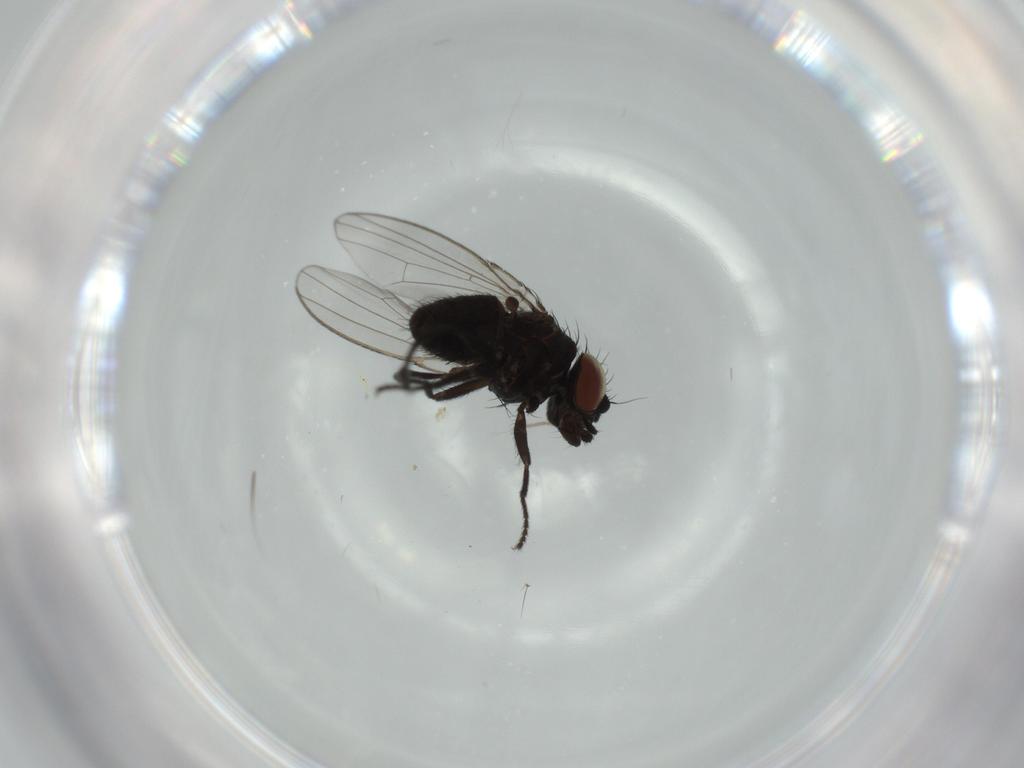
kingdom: Animalia
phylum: Arthropoda
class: Insecta
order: Diptera
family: Milichiidae
